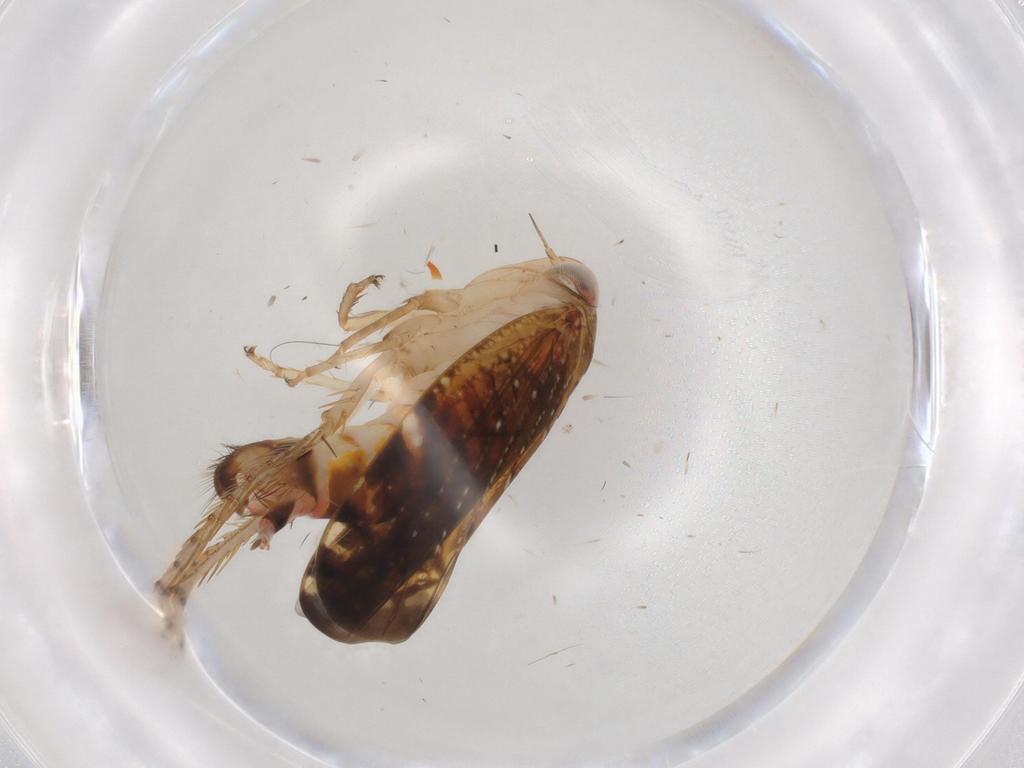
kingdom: Animalia
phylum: Arthropoda
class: Insecta
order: Hemiptera
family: Cicadellidae
